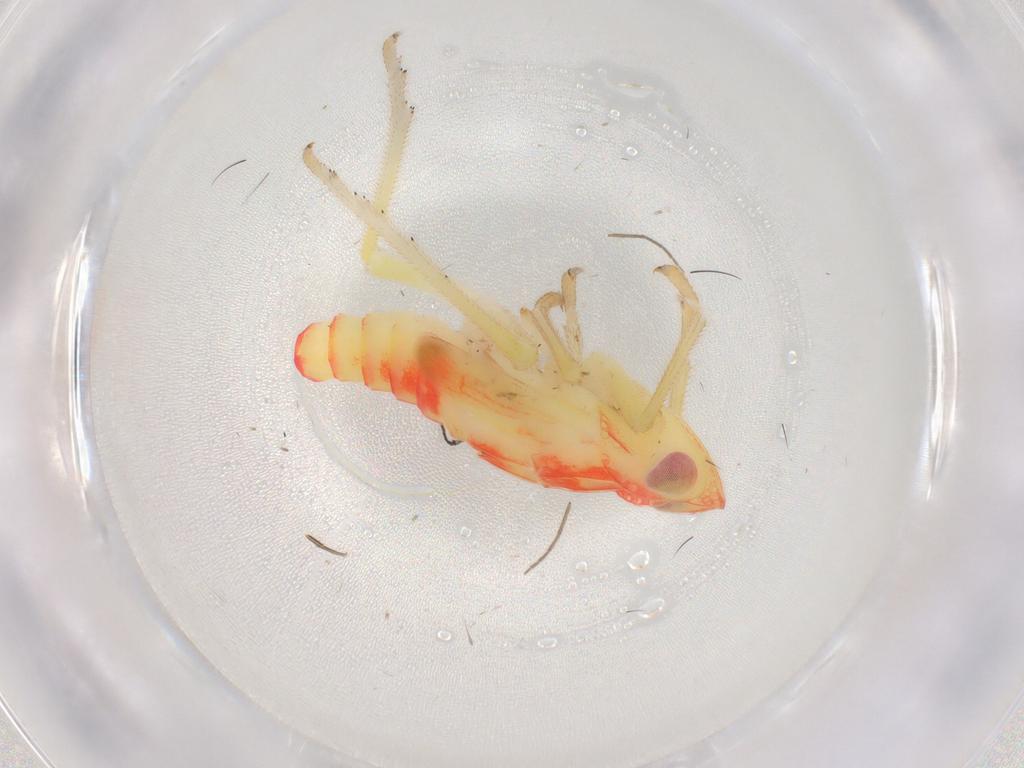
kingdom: Animalia
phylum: Arthropoda
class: Insecta
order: Hemiptera
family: Tropiduchidae
